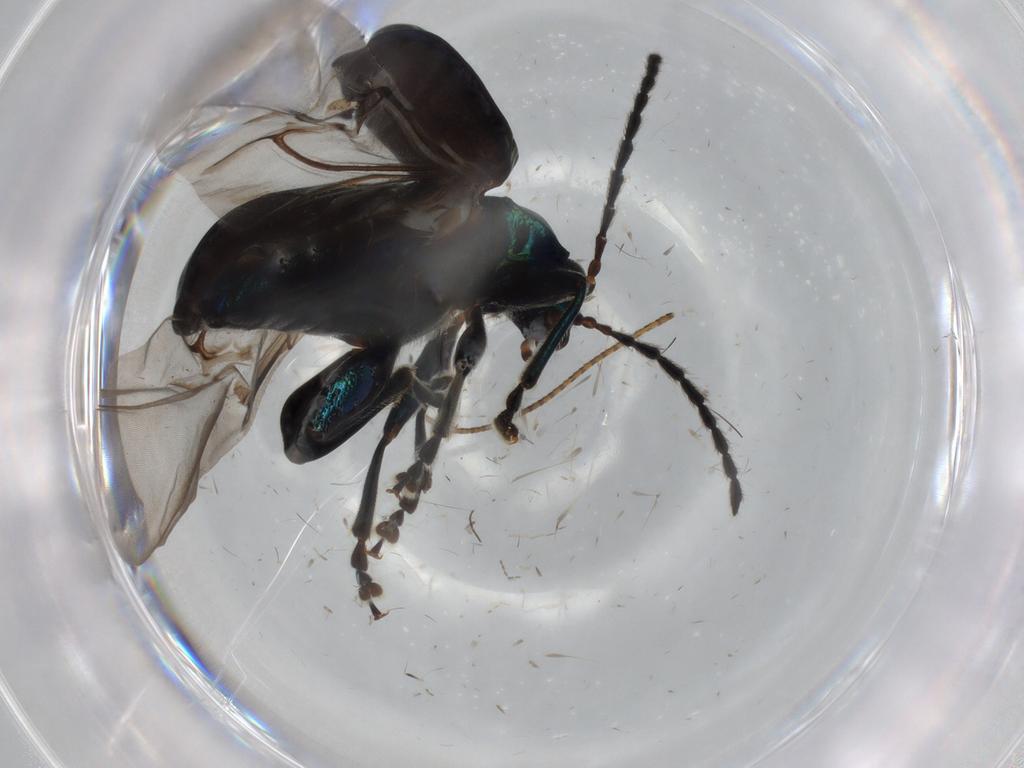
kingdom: Animalia
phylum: Arthropoda
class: Insecta
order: Coleoptera
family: Chrysomelidae
